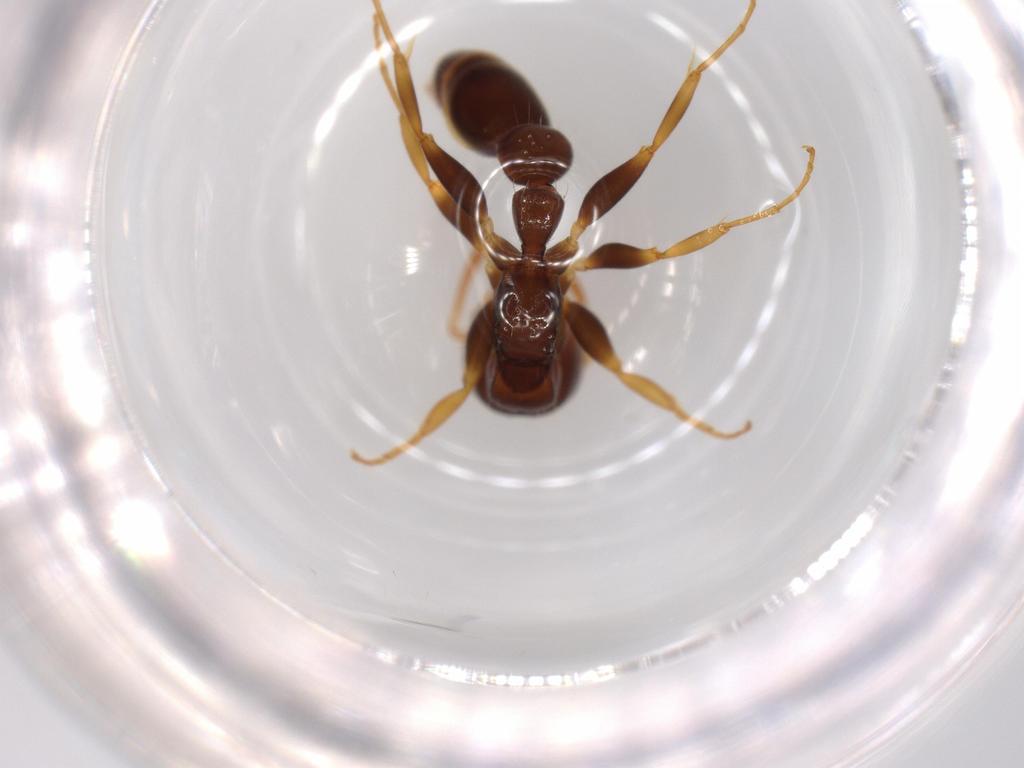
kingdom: Animalia
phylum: Arthropoda
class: Insecta
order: Hymenoptera
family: Formicidae
